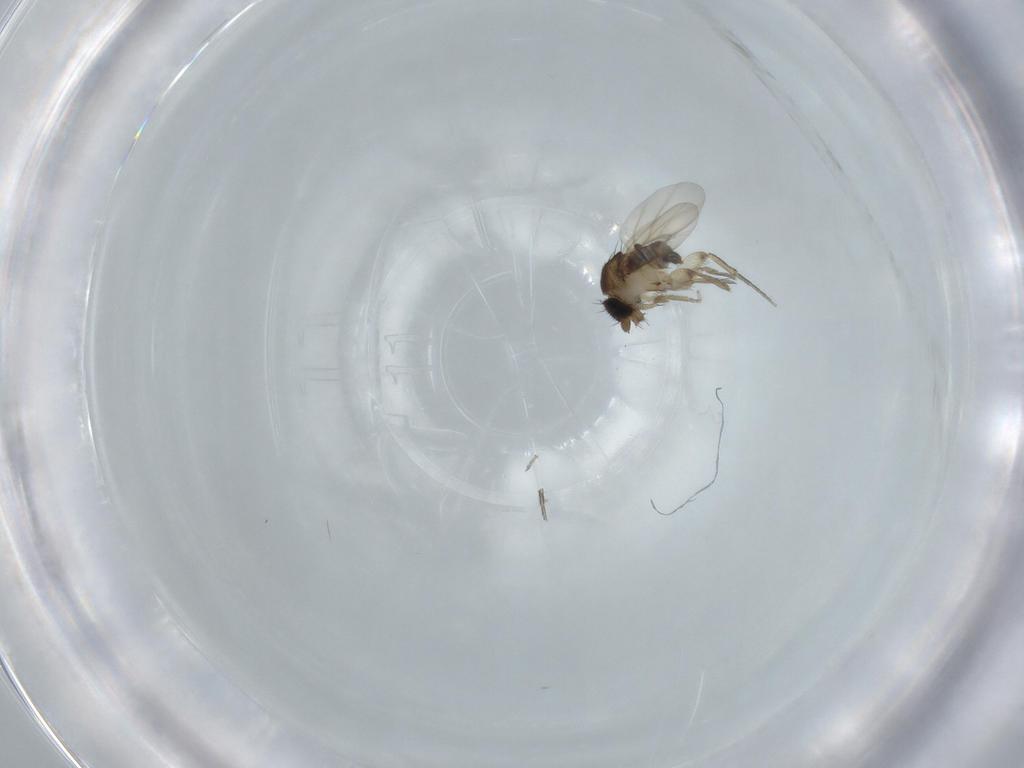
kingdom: Animalia
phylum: Arthropoda
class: Insecta
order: Diptera
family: Phoridae
